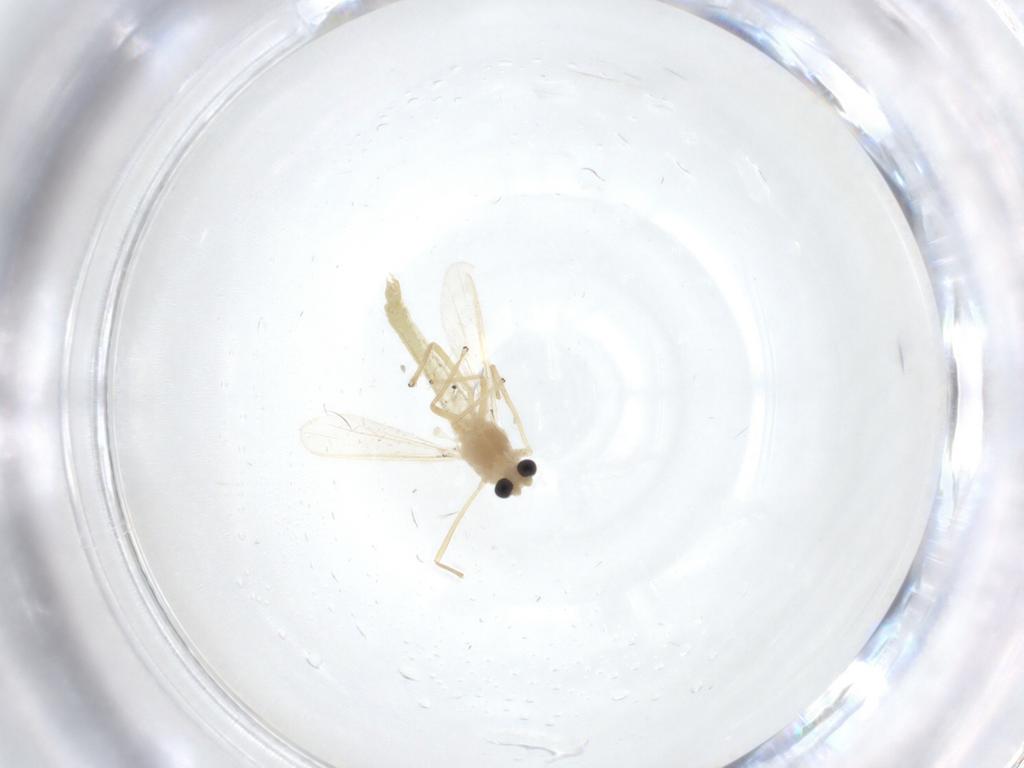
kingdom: Animalia
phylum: Arthropoda
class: Insecta
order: Diptera
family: Chironomidae
